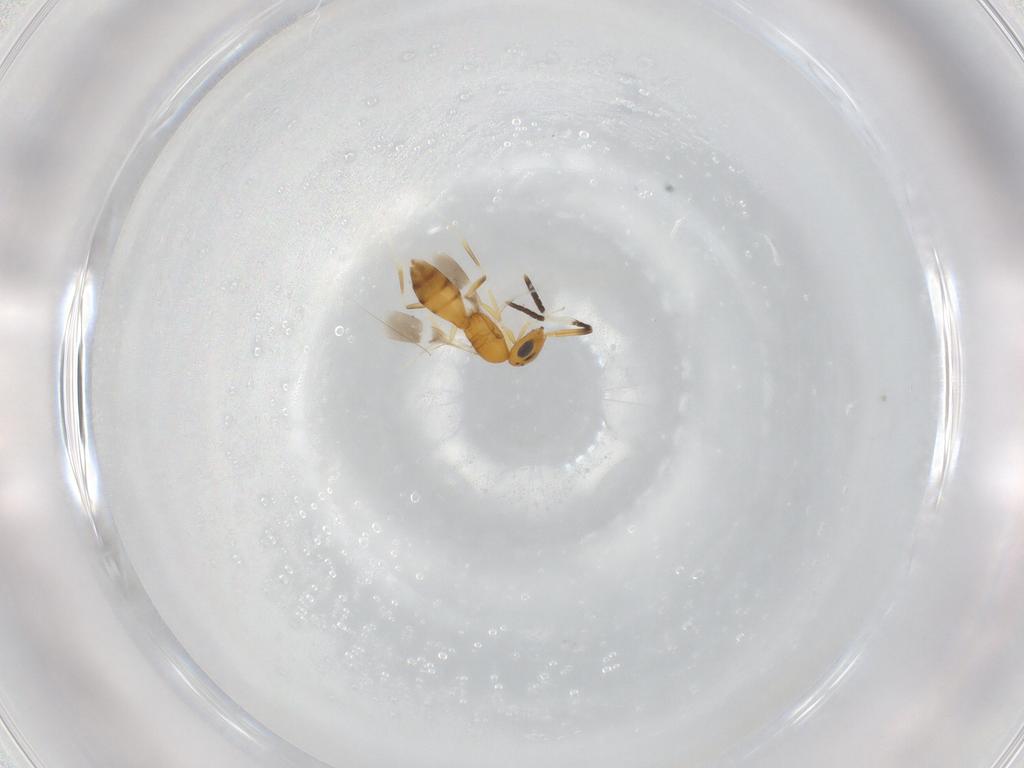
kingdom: Animalia
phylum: Arthropoda
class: Insecta
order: Hymenoptera
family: Scelionidae
